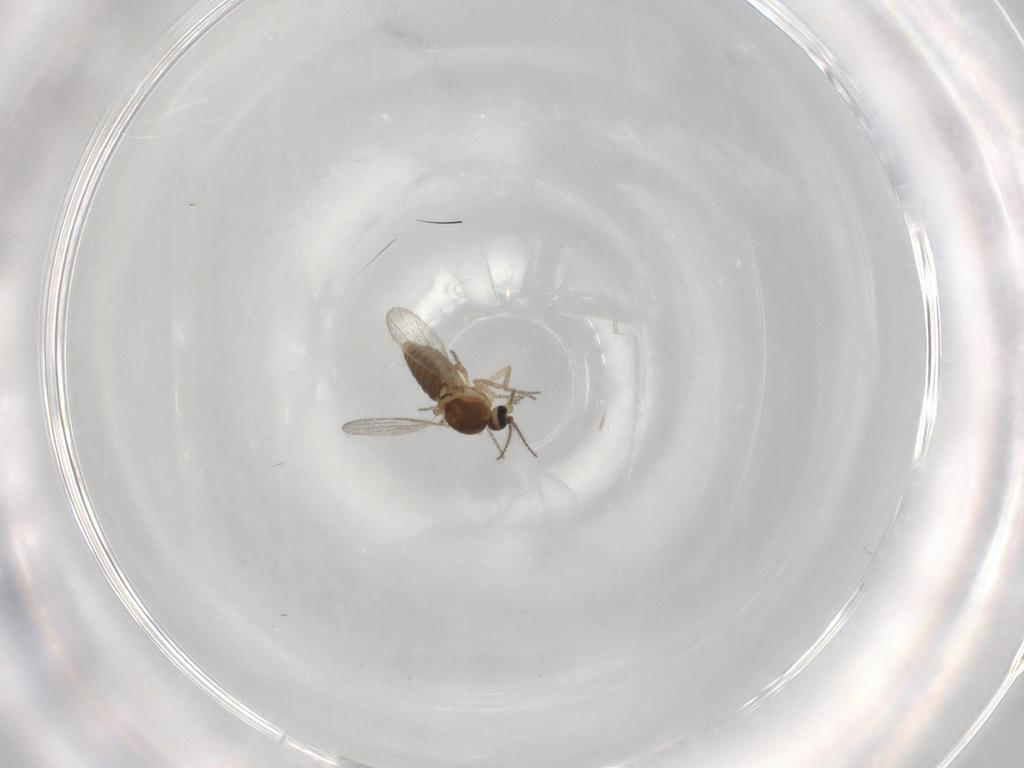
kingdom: Animalia
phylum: Arthropoda
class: Insecta
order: Diptera
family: Ceratopogonidae
